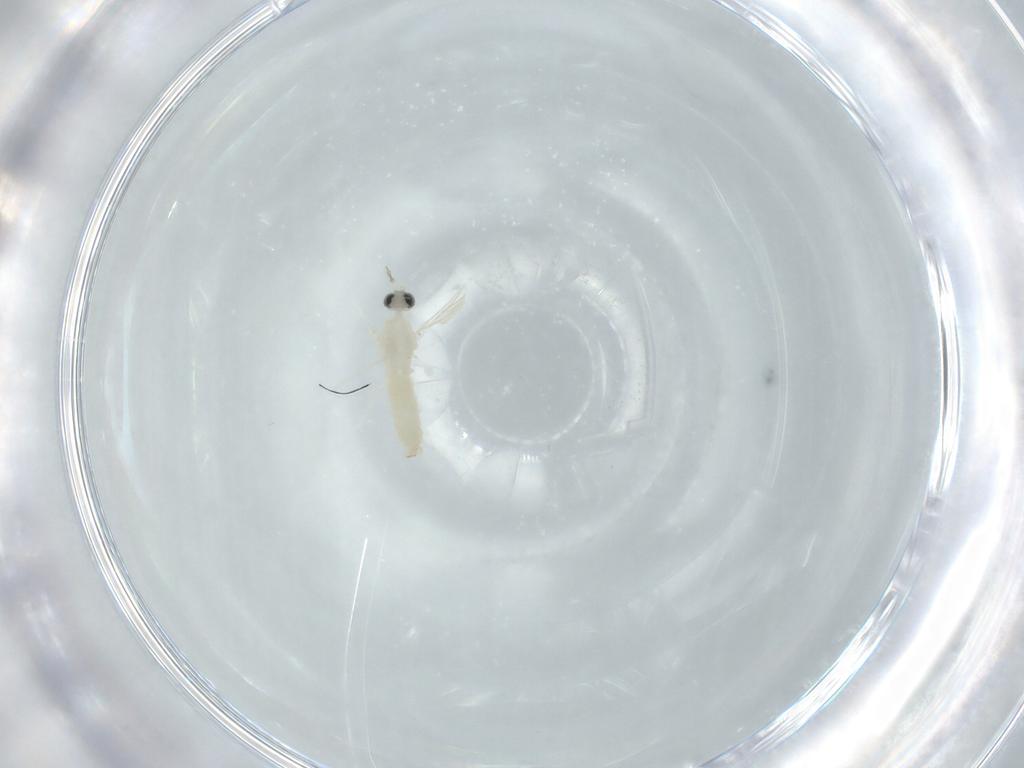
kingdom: Animalia
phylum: Arthropoda
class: Insecta
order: Diptera
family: Cecidomyiidae
